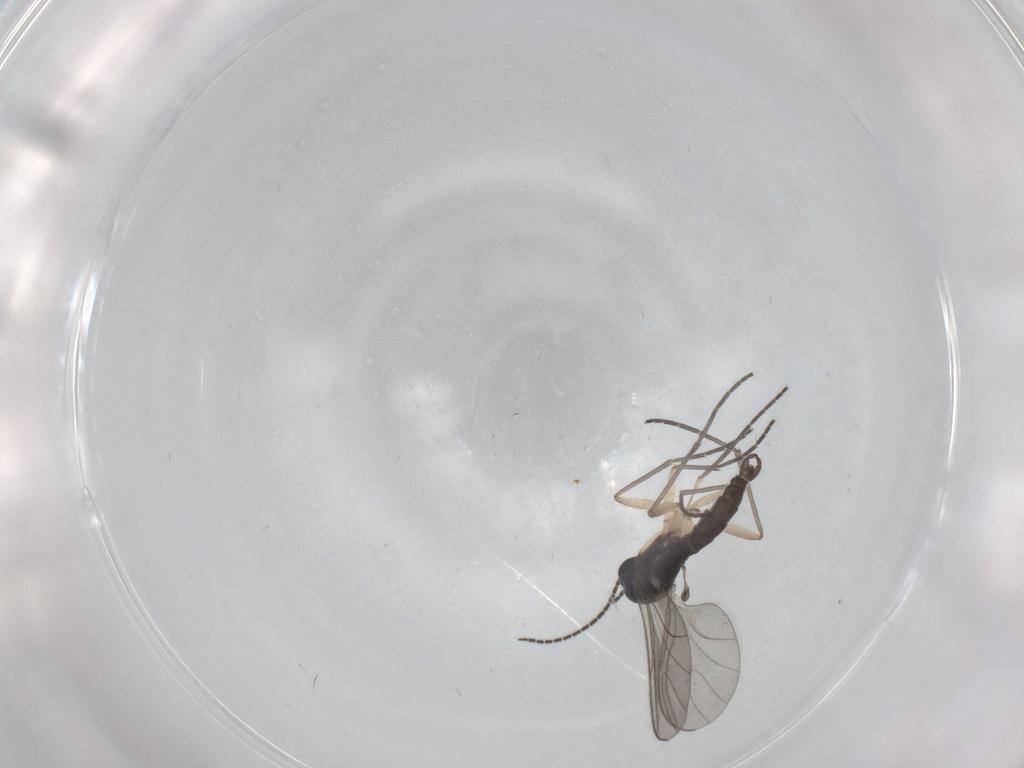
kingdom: Animalia
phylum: Arthropoda
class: Insecta
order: Diptera
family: Sciaridae
